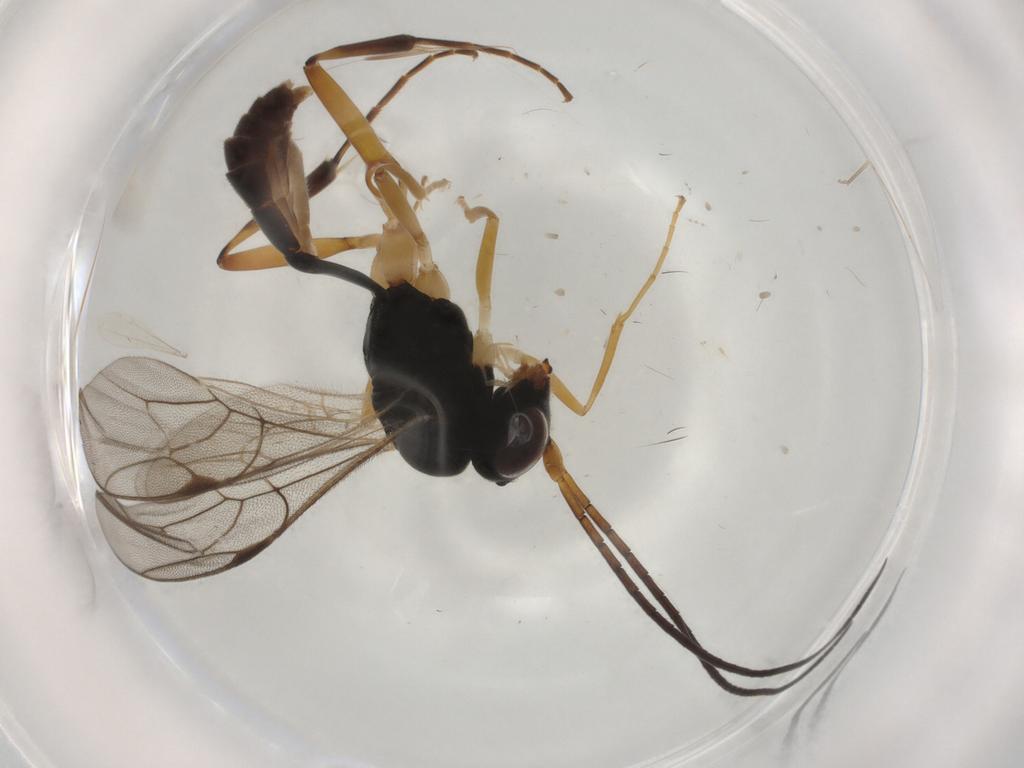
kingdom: Animalia
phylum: Arthropoda
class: Insecta
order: Hymenoptera
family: Ichneumonidae
